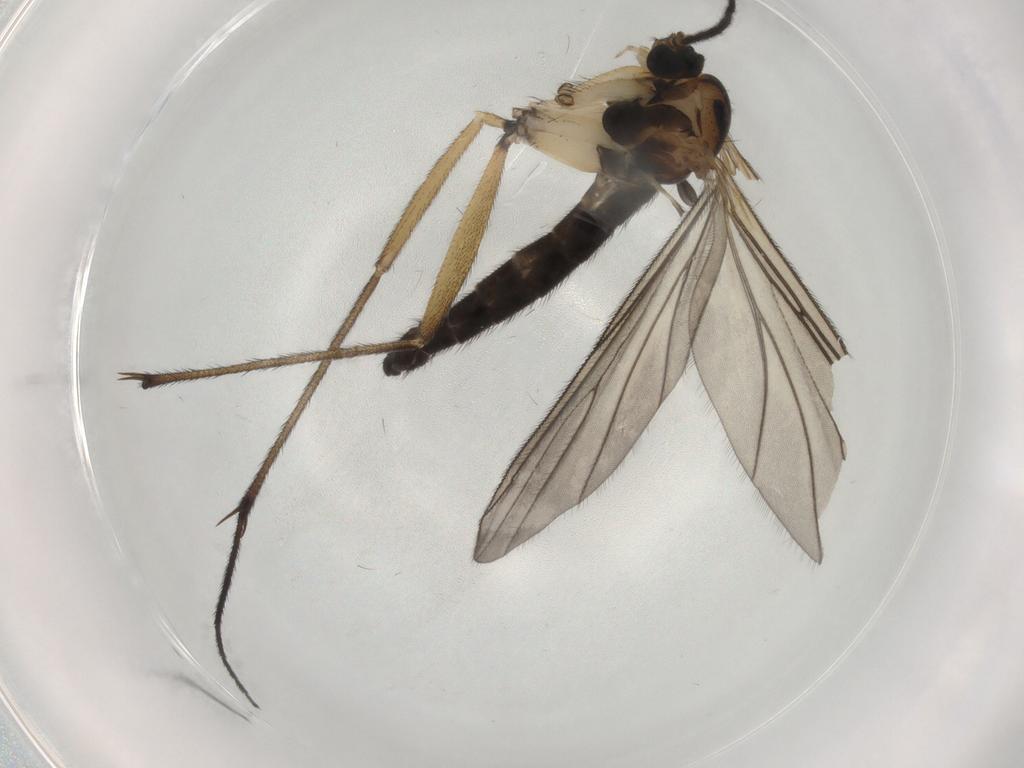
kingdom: Animalia
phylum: Arthropoda
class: Insecta
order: Diptera
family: Sciaridae
